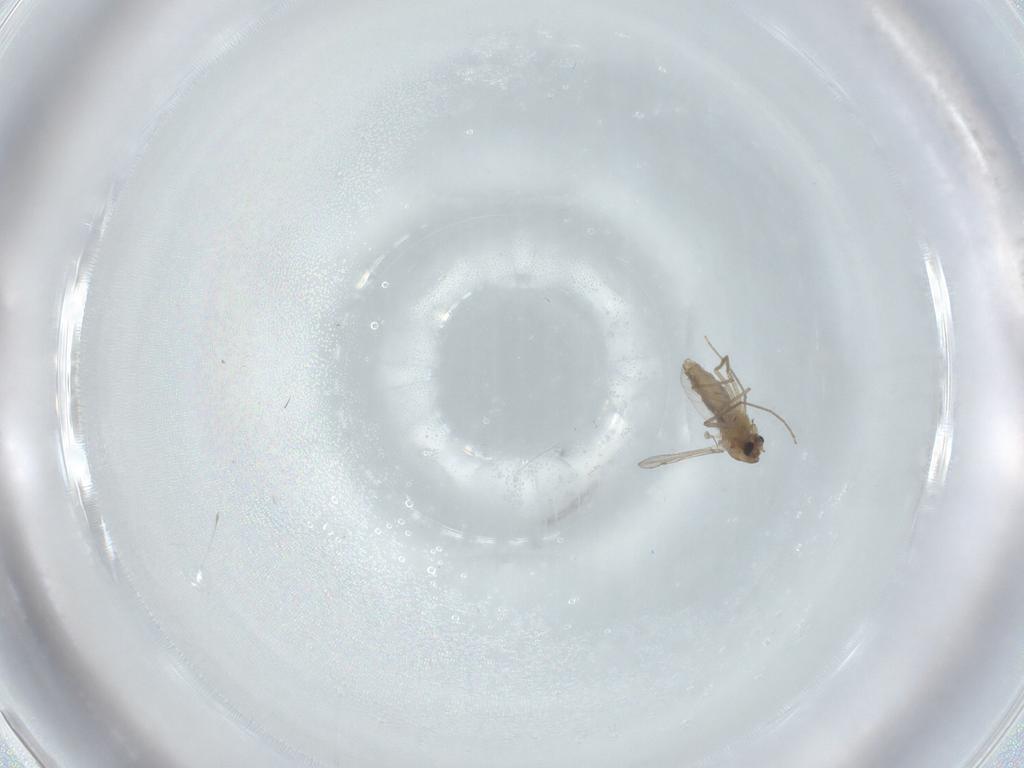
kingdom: Animalia
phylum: Arthropoda
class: Insecta
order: Diptera
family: Chironomidae
